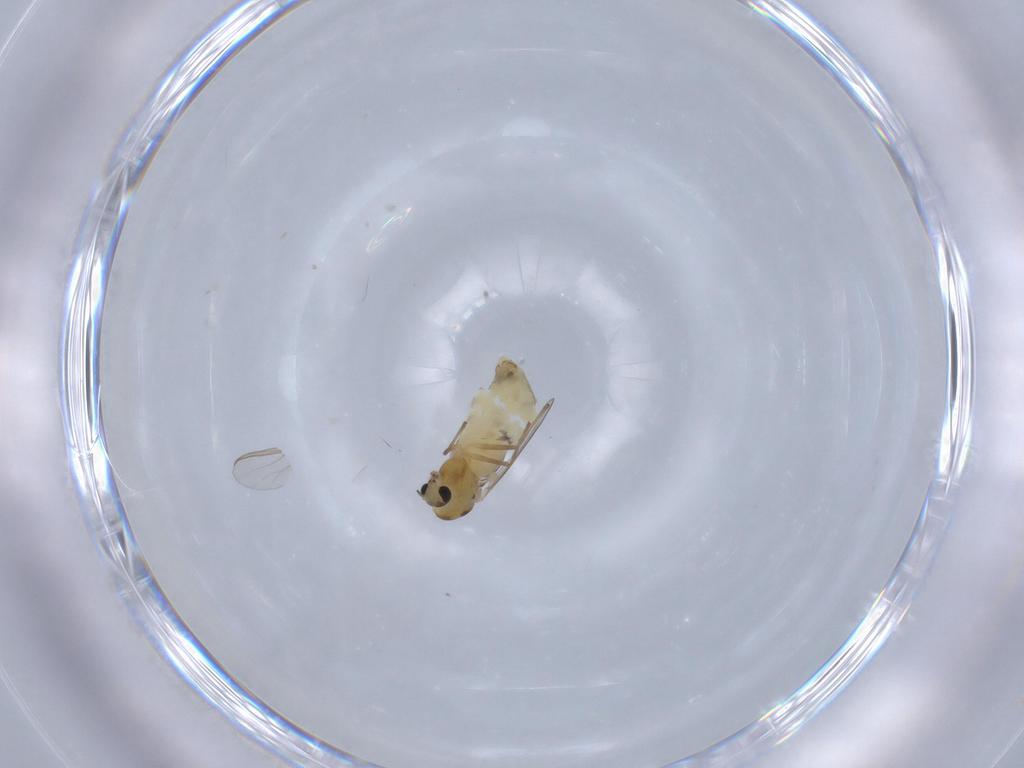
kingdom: Animalia
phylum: Arthropoda
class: Insecta
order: Diptera
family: Chironomidae
